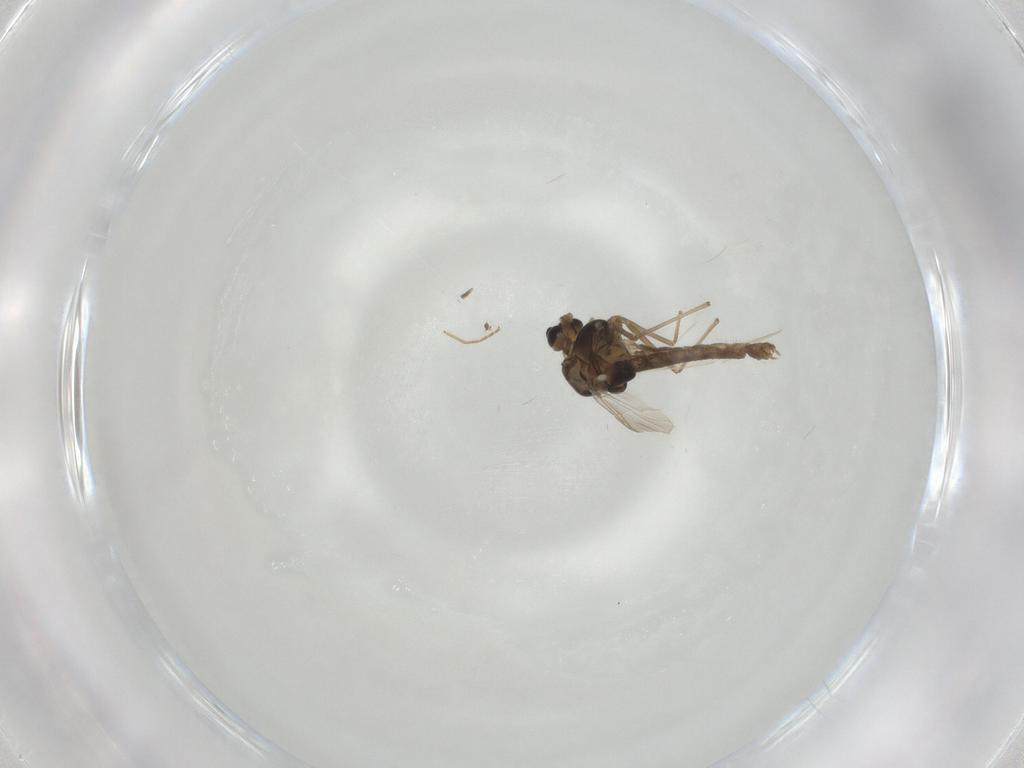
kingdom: Animalia
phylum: Arthropoda
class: Insecta
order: Diptera
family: Chironomidae
